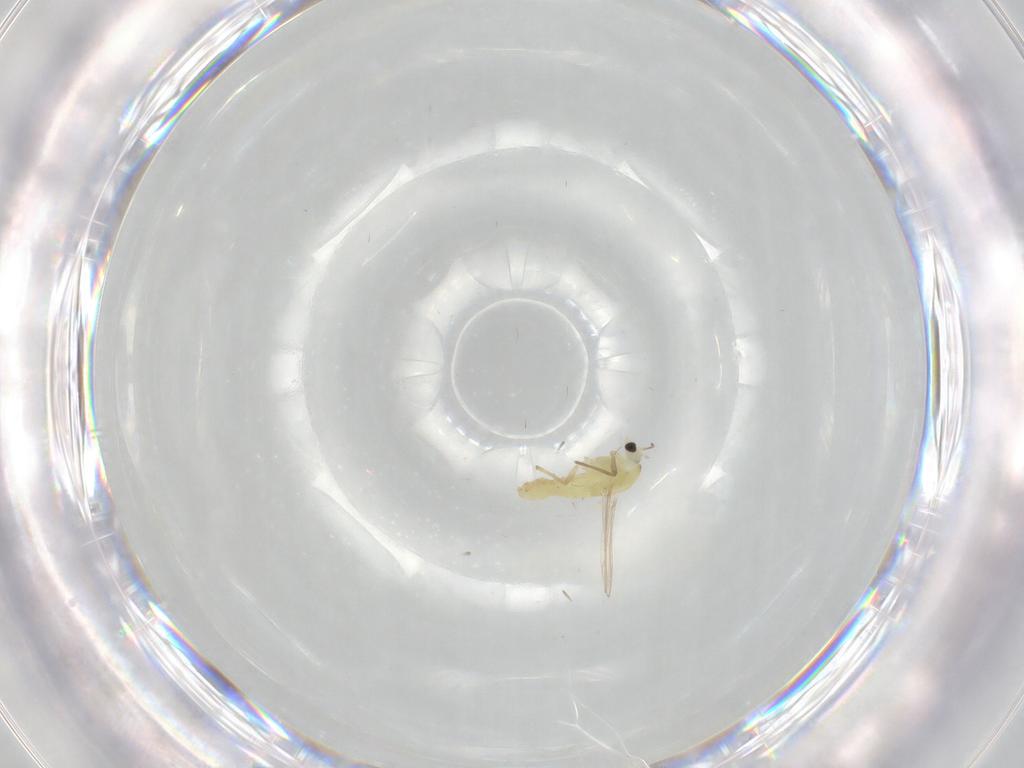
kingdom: Animalia
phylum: Arthropoda
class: Insecta
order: Diptera
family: Chironomidae
